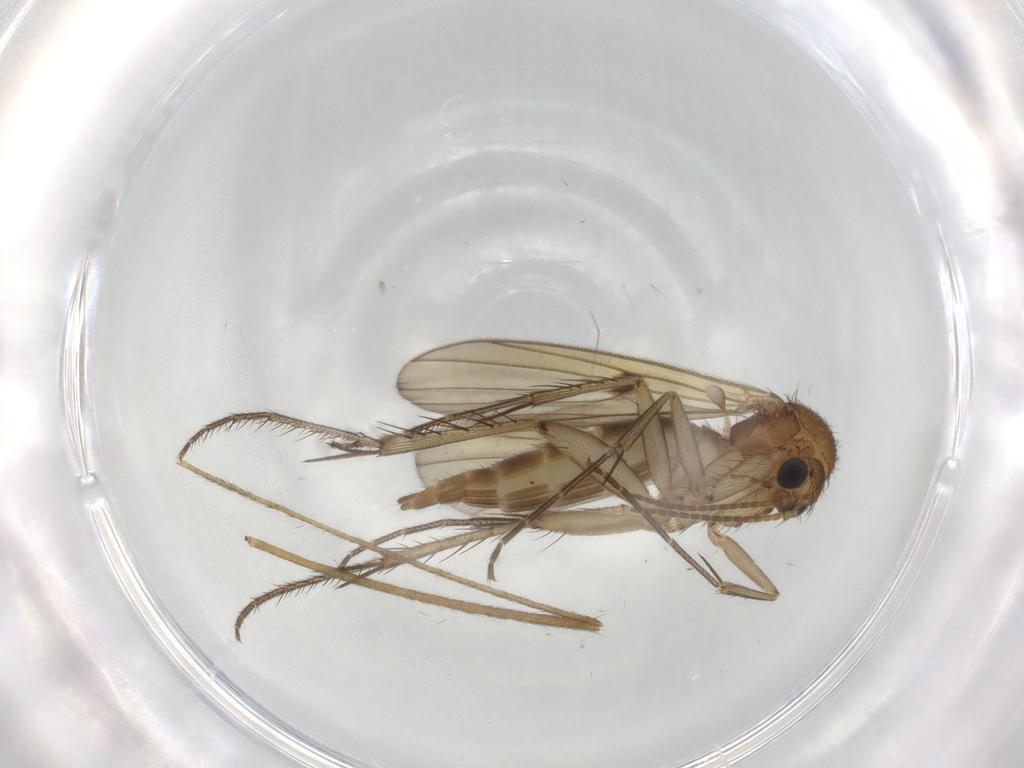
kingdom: Animalia
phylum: Arthropoda
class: Insecta
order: Diptera
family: Mycetophilidae
